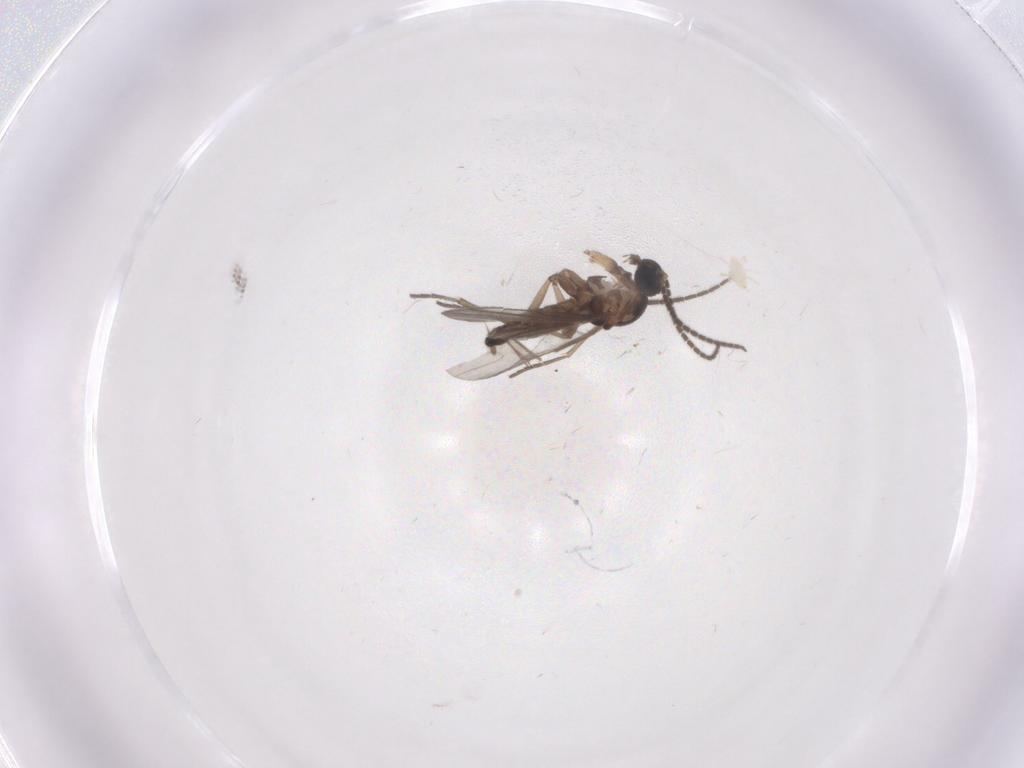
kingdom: Animalia
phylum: Arthropoda
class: Insecta
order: Diptera
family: Sciaridae
